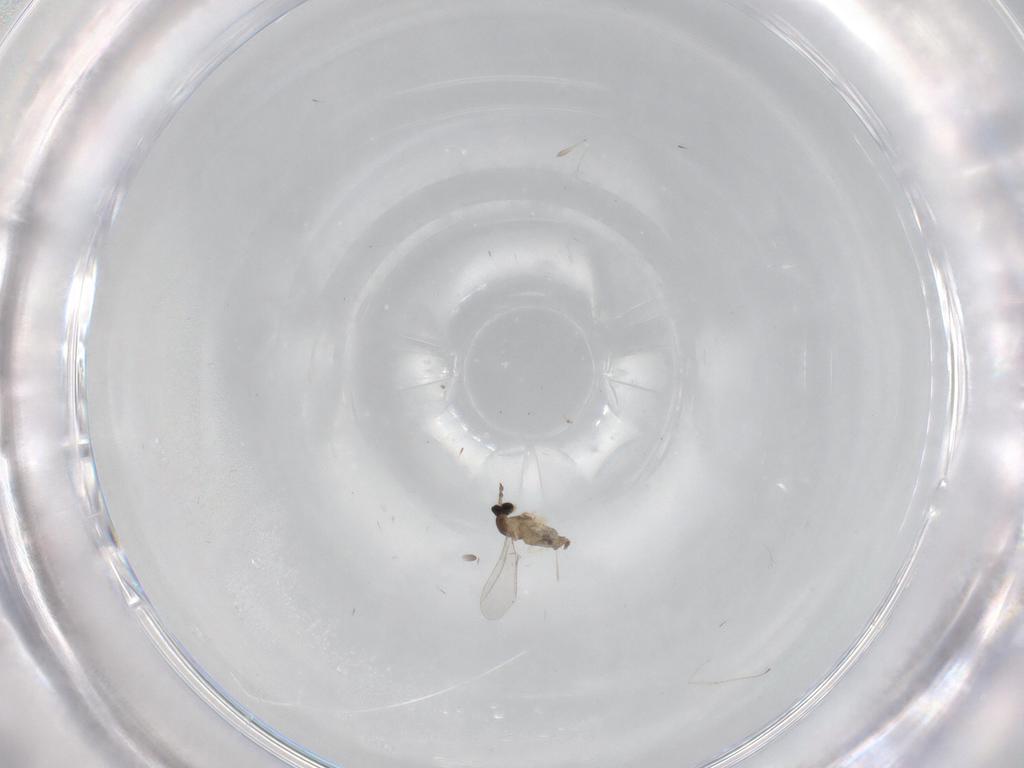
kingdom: Animalia
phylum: Arthropoda
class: Insecta
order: Diptera
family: Cecidomyiidae
